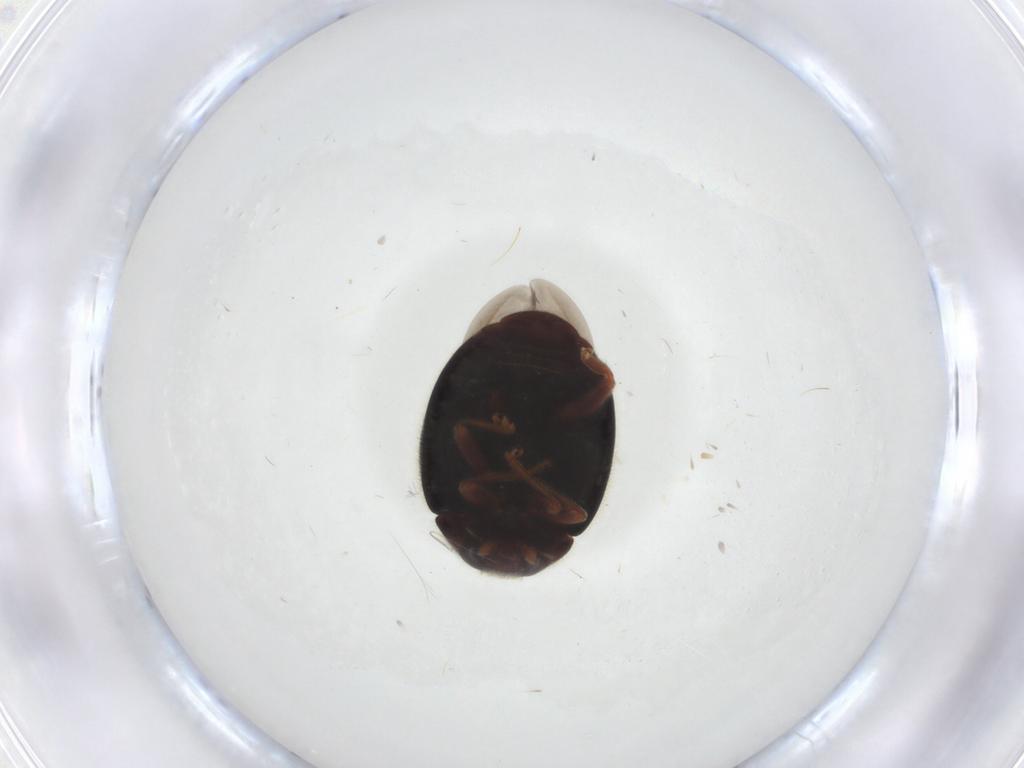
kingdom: Animalia
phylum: Arthropoda
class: Insecta
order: Coleoptera
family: Coccinellidae
